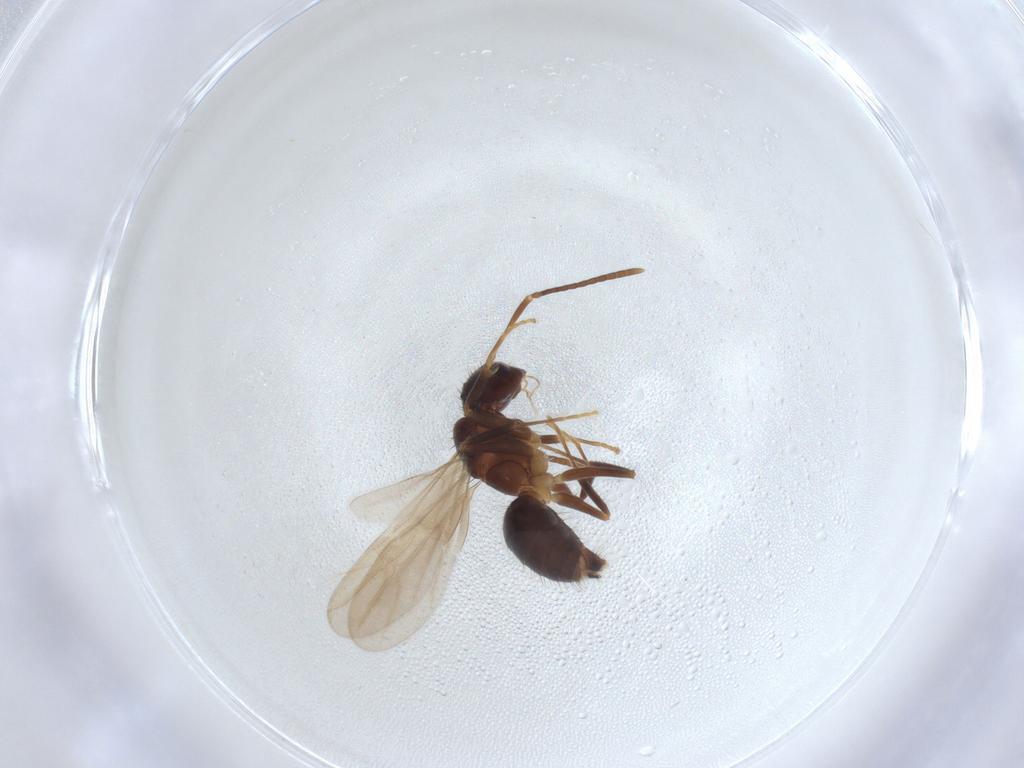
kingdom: Animalia
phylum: Arthropoda
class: Insecta
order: Hymenoptera
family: Formicidae
